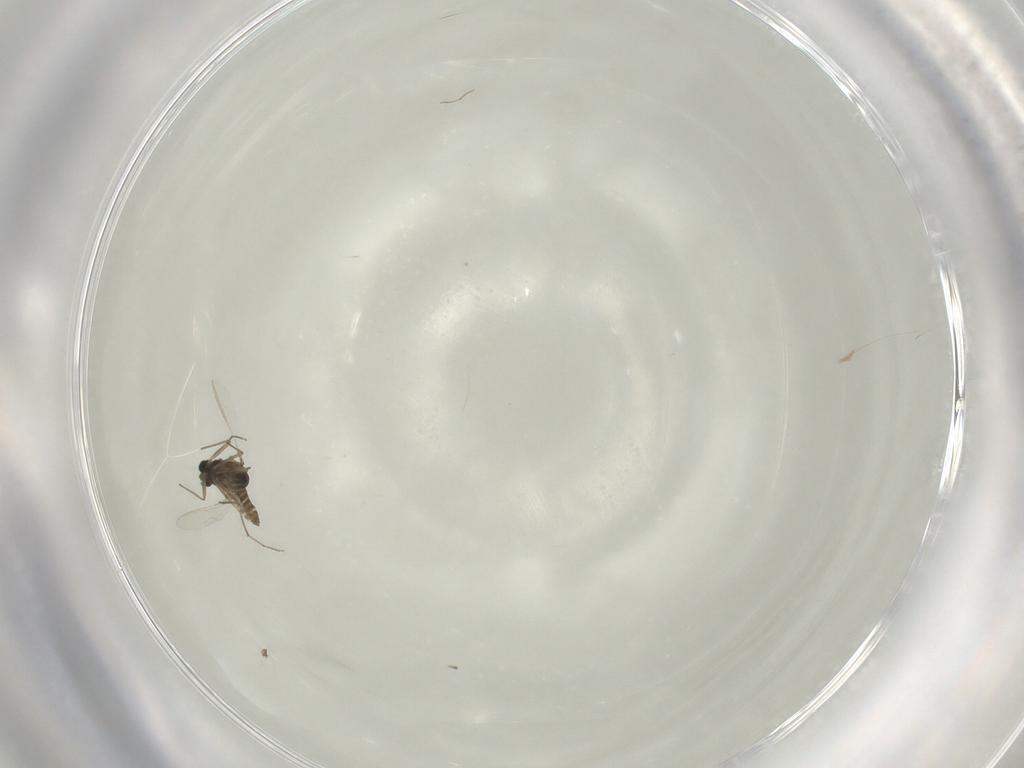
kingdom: Animalia
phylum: Arthropoda
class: Insecta
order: Diptera
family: Chironomidae
